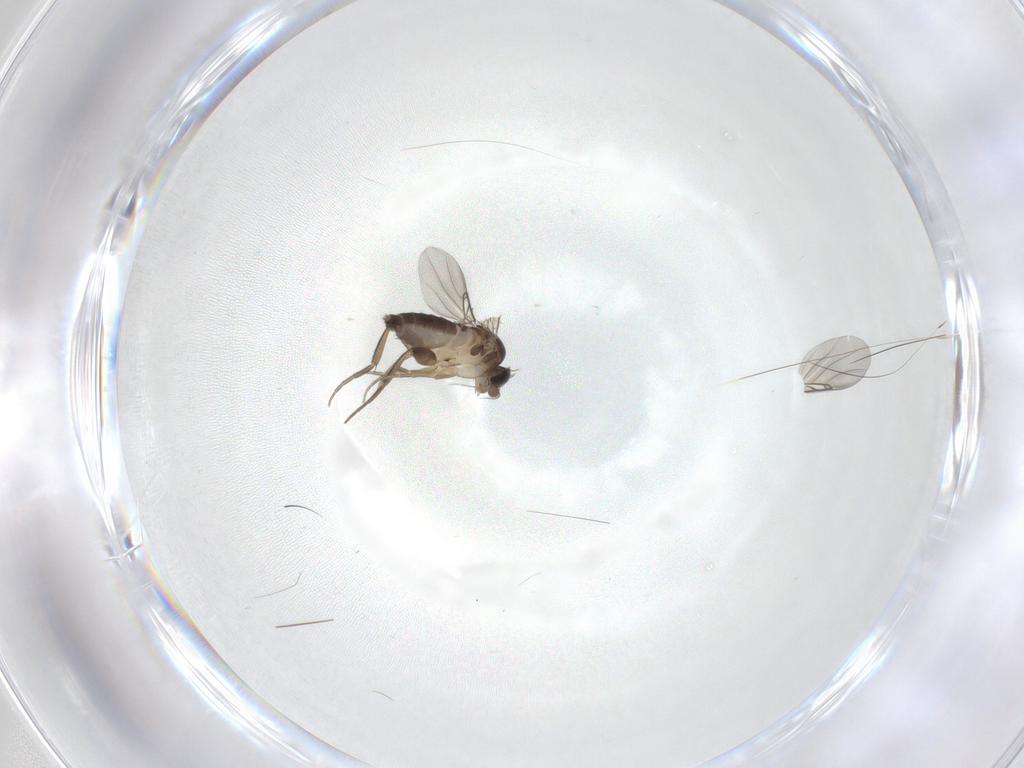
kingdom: Animalia
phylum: Arthropoda
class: Insecta
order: Diptera
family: Phoridae
